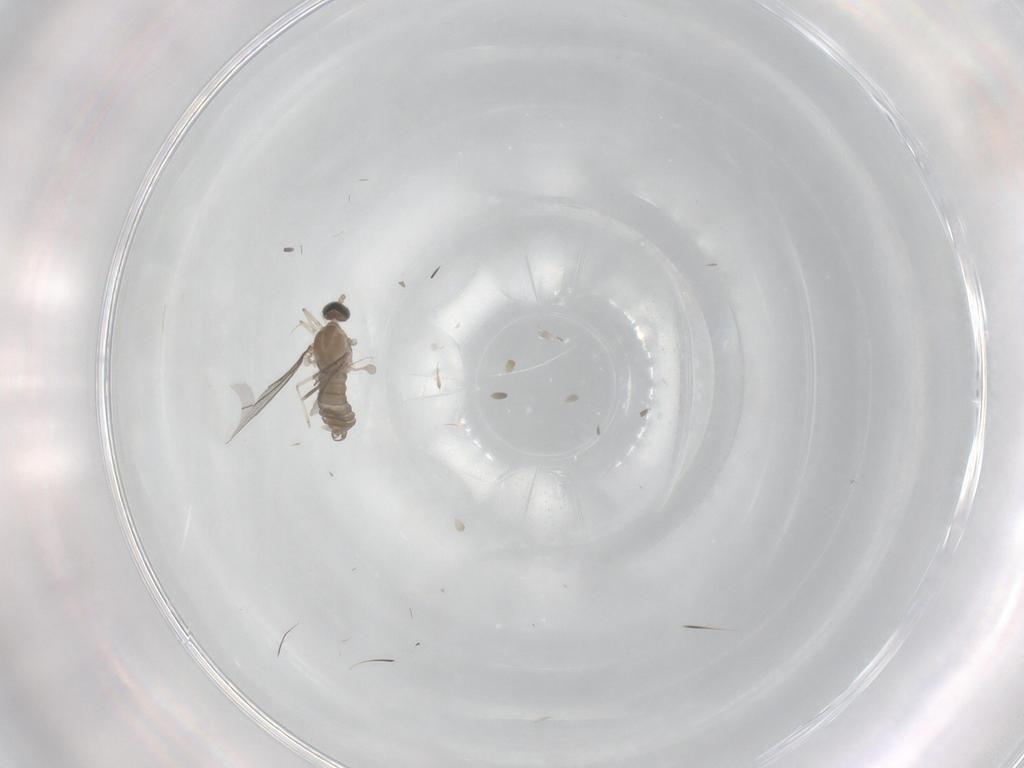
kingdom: Animalia
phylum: Arthropoda
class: Insecta
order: Diptera
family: Cecidomyiidae
